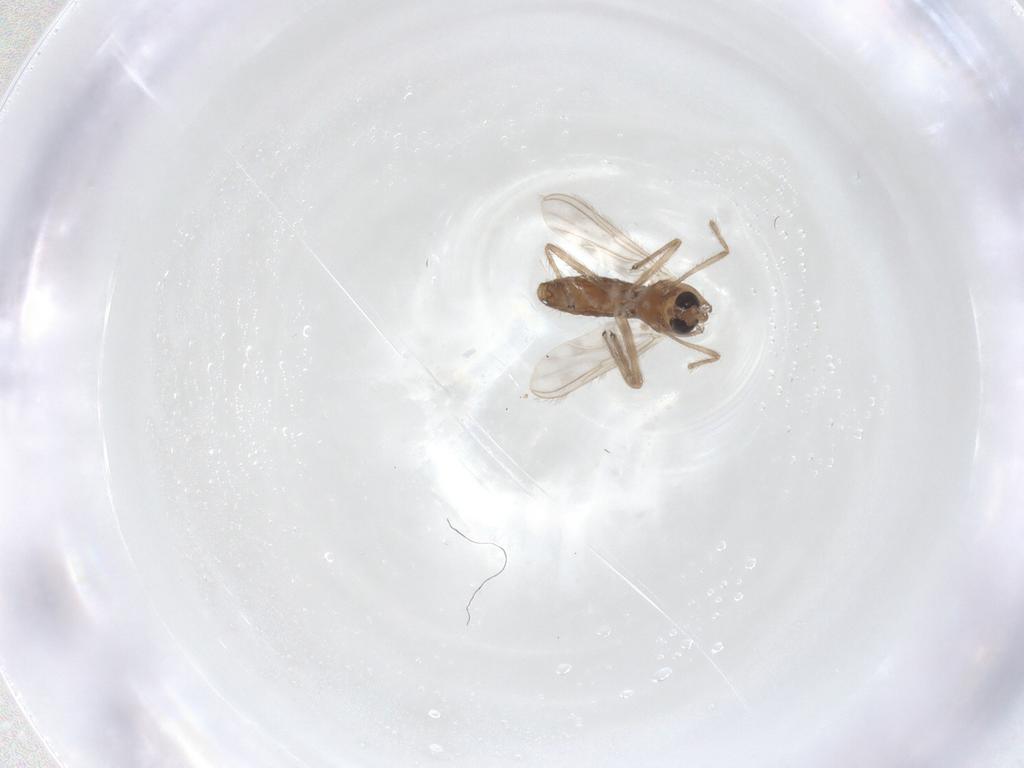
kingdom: Animalia
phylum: Arthropoda
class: Insecta
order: Diptera
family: Chironomidae
